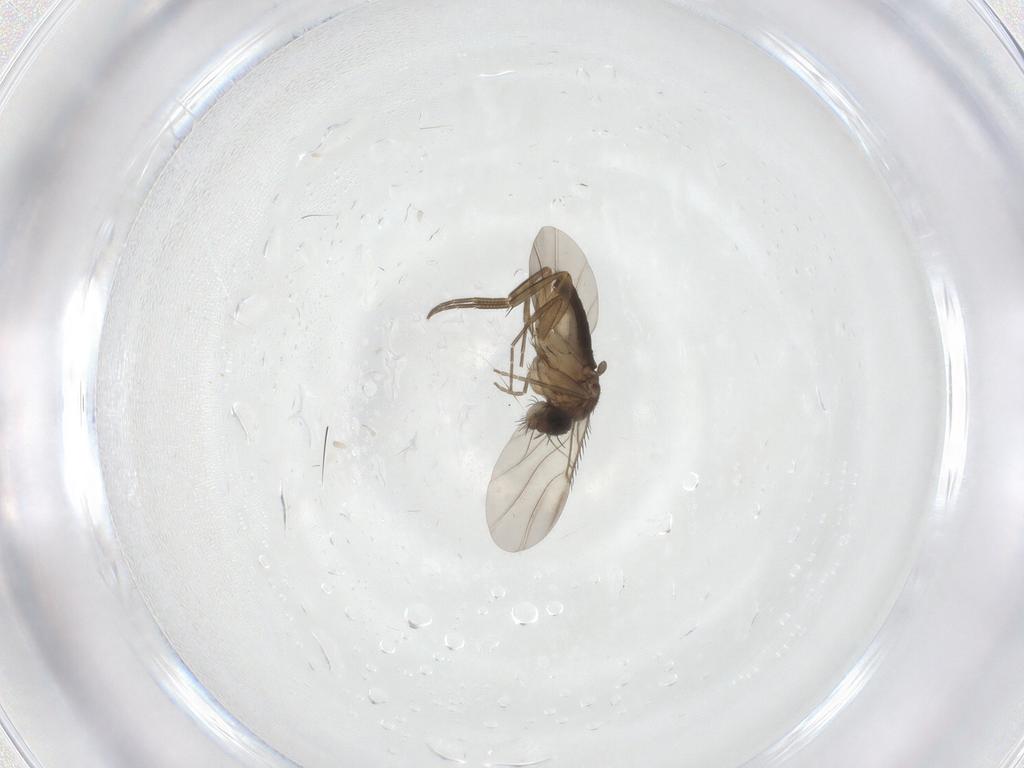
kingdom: Animalia
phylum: Arthropoda
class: Insecta
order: Diptera
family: Phoridae
